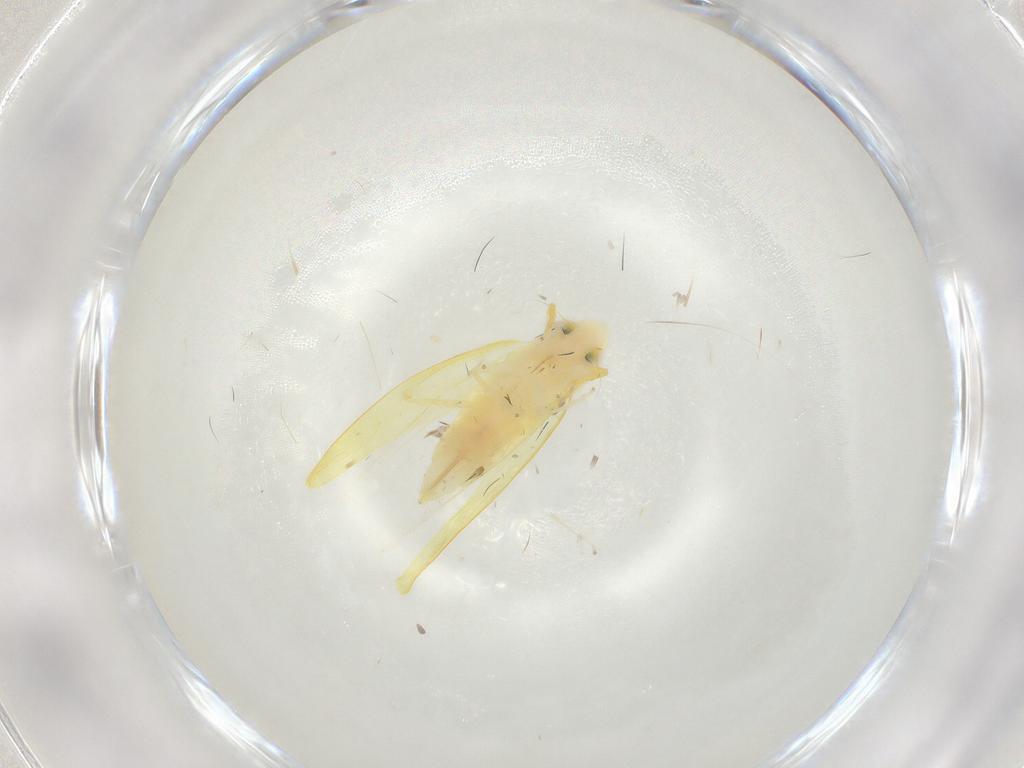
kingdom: Animalia
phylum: Arthropoda
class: Insecta
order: Hemiptera
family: Cicadellidae
